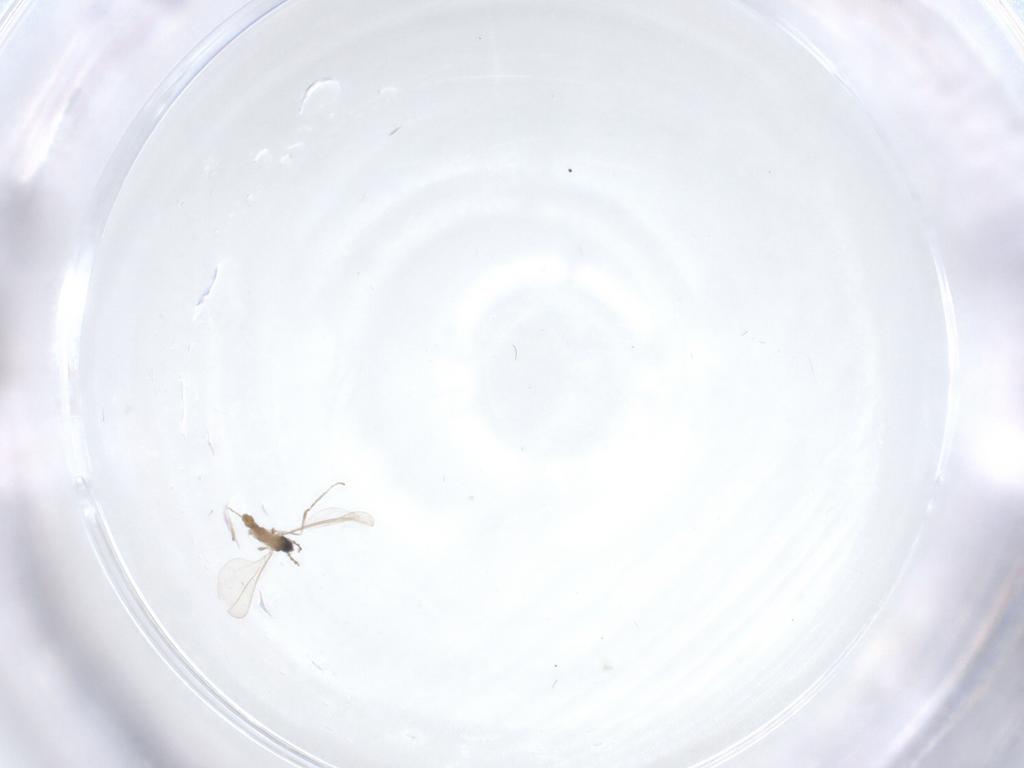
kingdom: Animalia
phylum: Arthropoda
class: Insecta
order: Diptera
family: Cecidomyiidae
